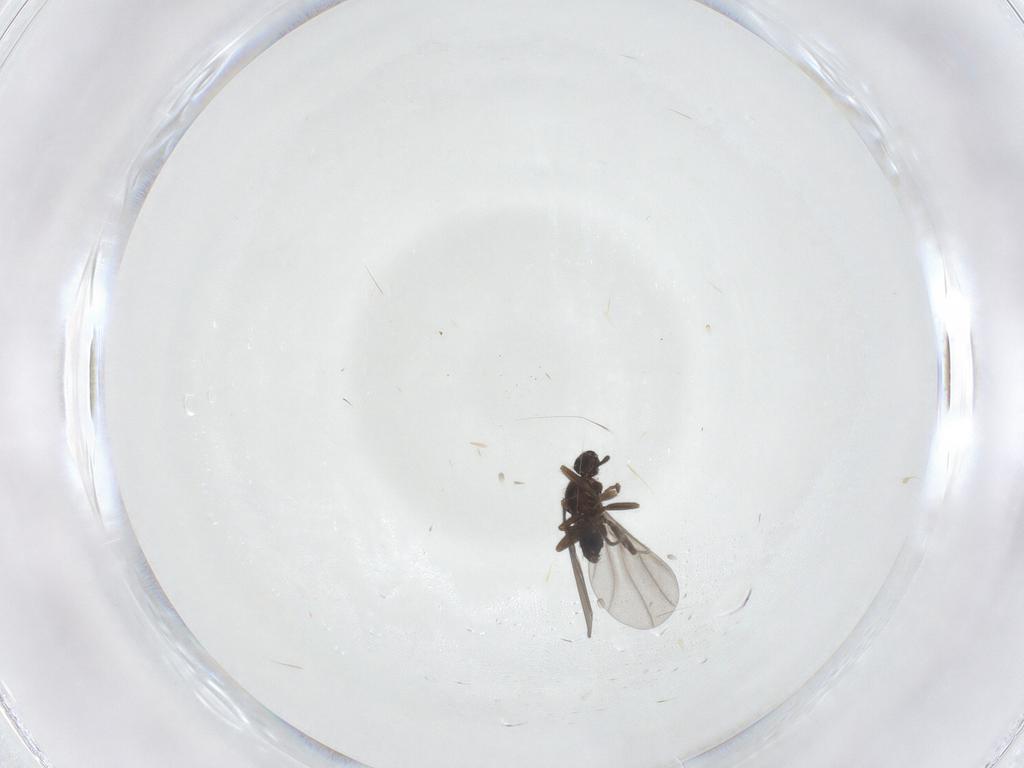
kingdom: Animalia
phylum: Arthropoda
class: Insecta
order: Diptera
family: Phoridae
